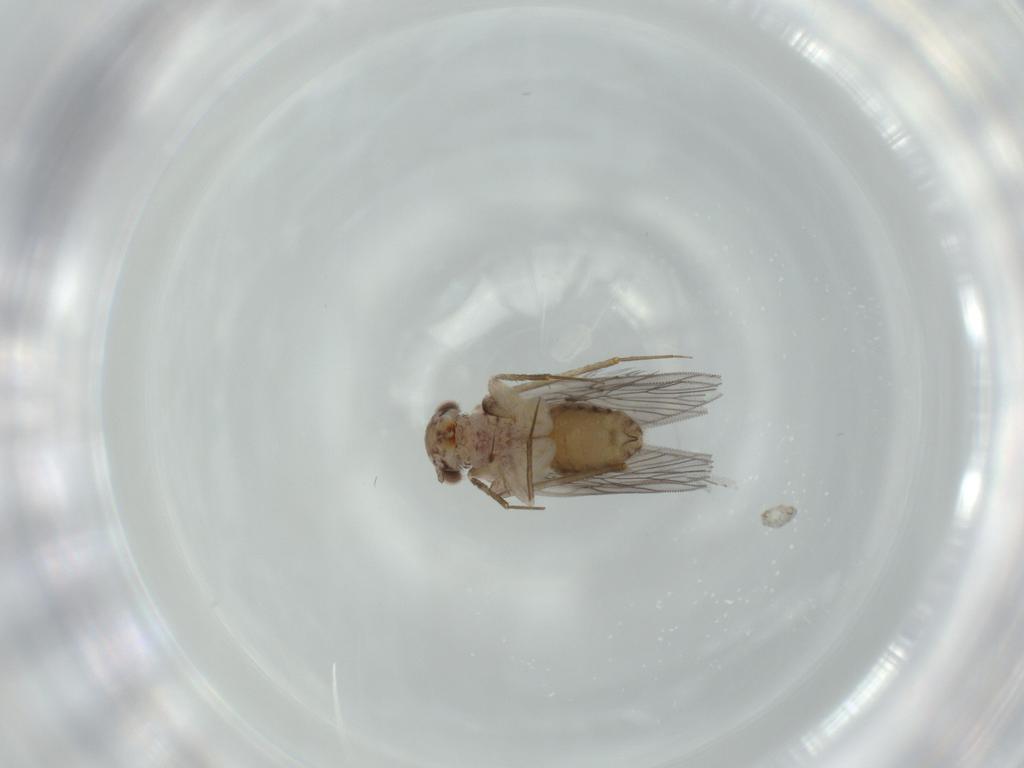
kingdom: Animalia
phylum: Arthropoda
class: Insecta
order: Psocodea
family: Lepidopsocidae
